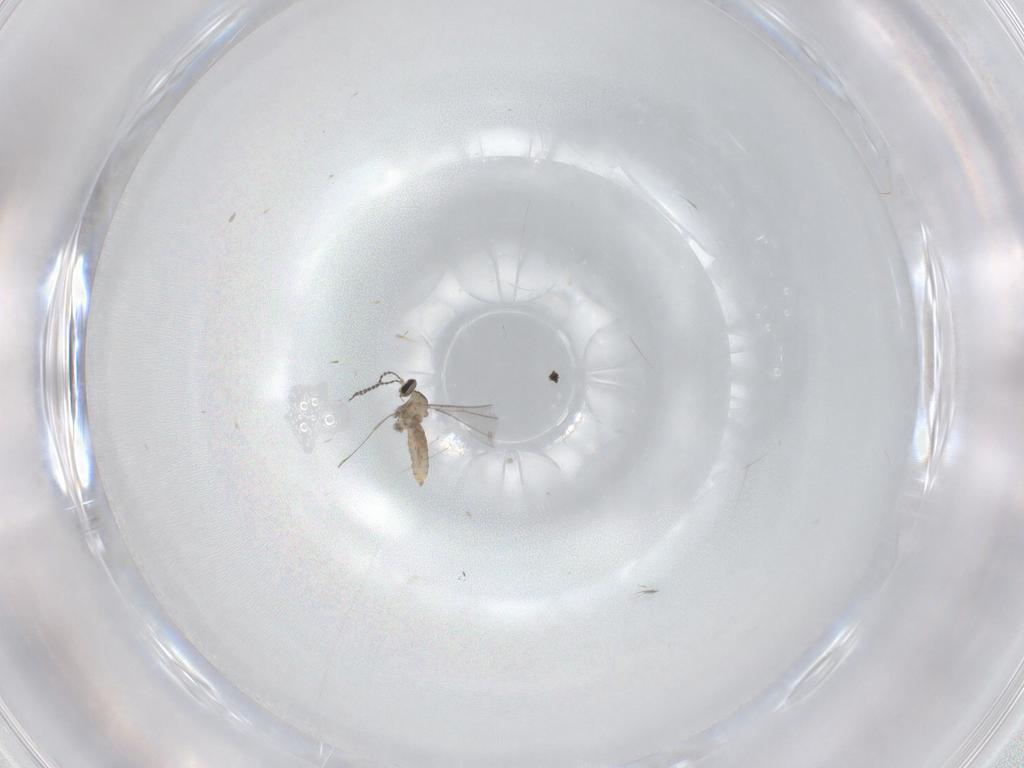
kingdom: Animalia
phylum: Arthropoda
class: Insecta
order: Diptera
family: Cecidomyiidae
